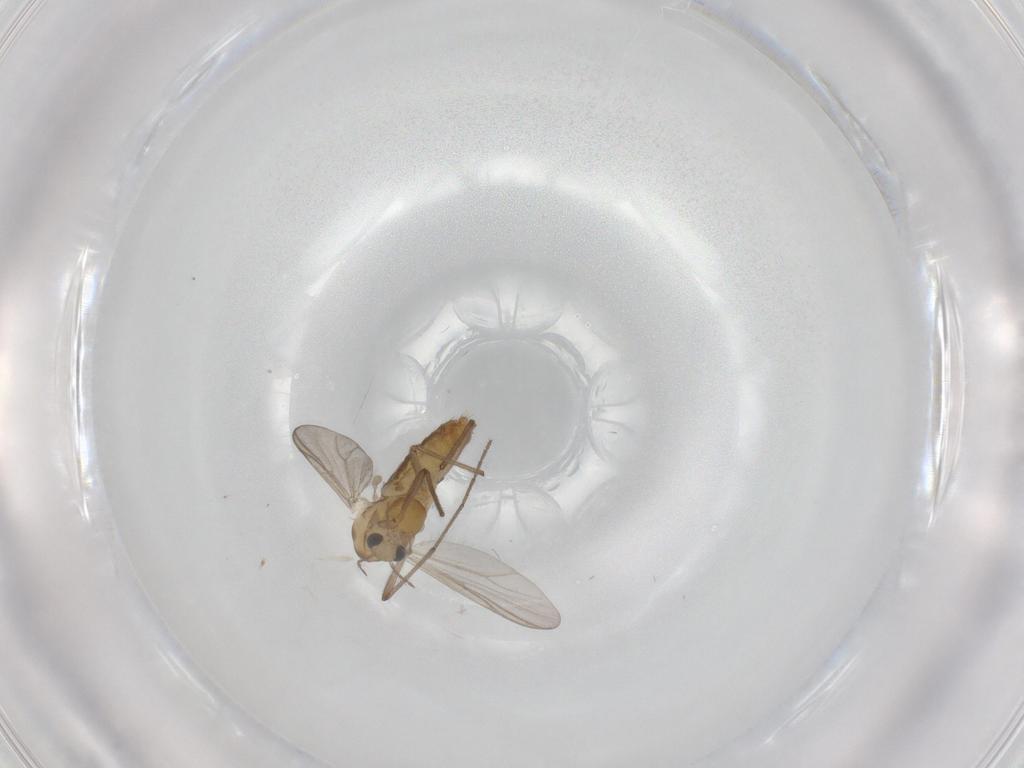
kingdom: Animalia
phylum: Arthropoda
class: Insecta
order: Diptera
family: Chironomidae
